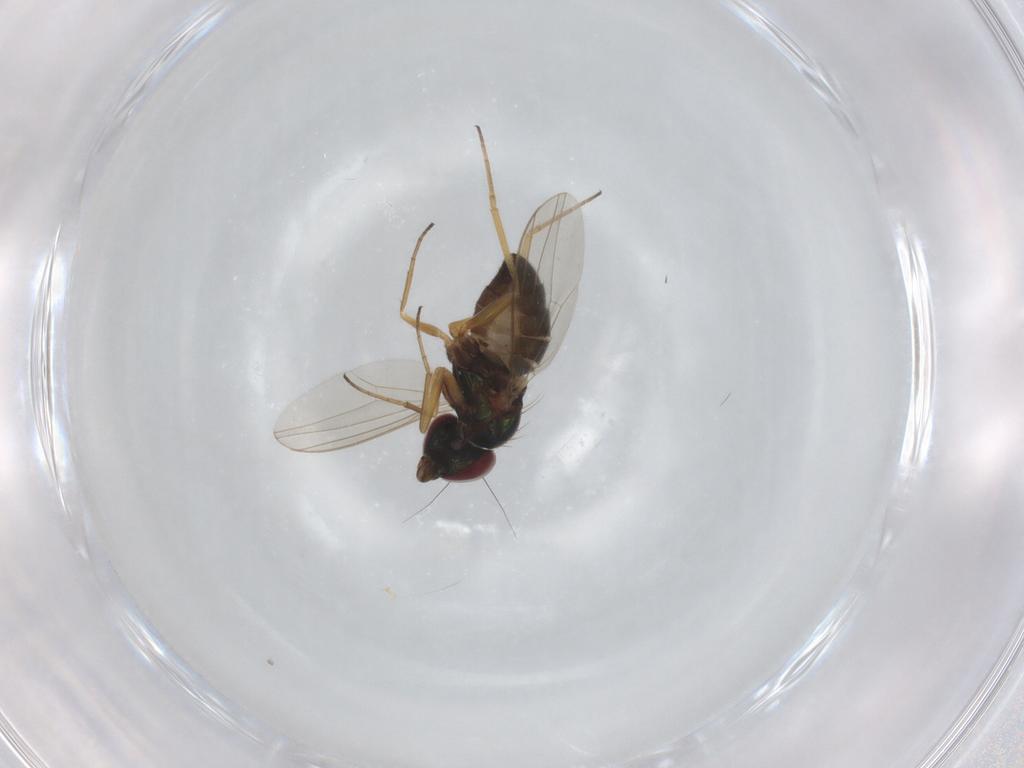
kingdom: Animalia
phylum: Arthropoda
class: Insecta
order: Diptera
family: Dolichopodidae
